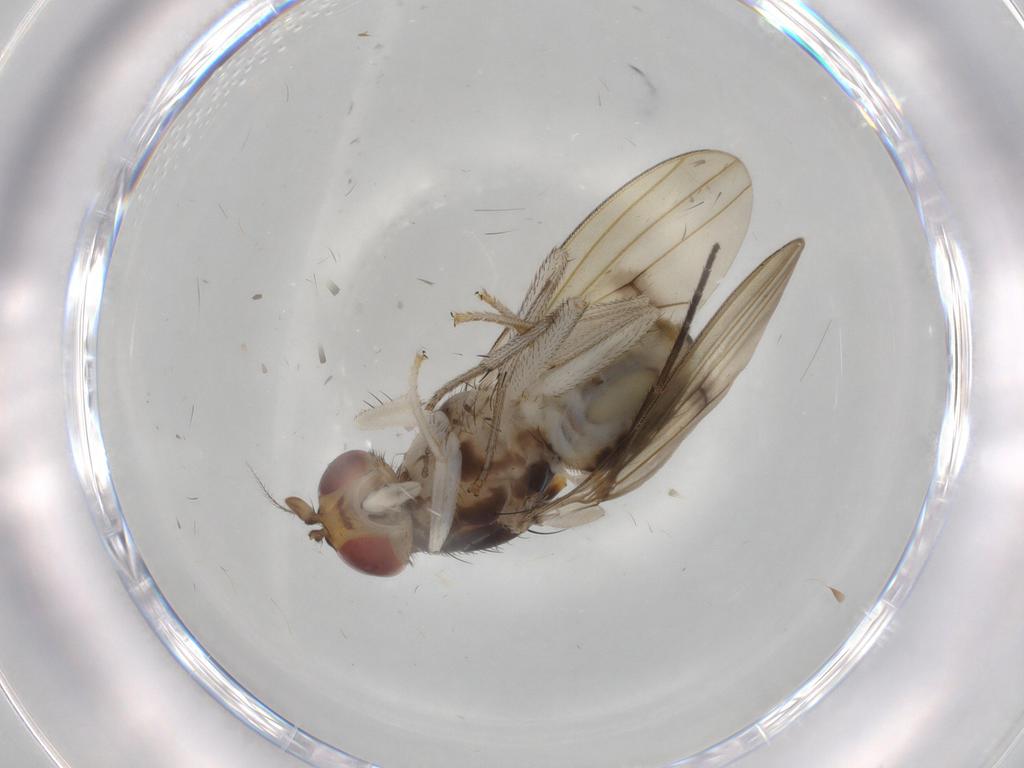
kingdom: Animalia
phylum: Arthropoda
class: Insecta
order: Diptera
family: Lauxaniidae
